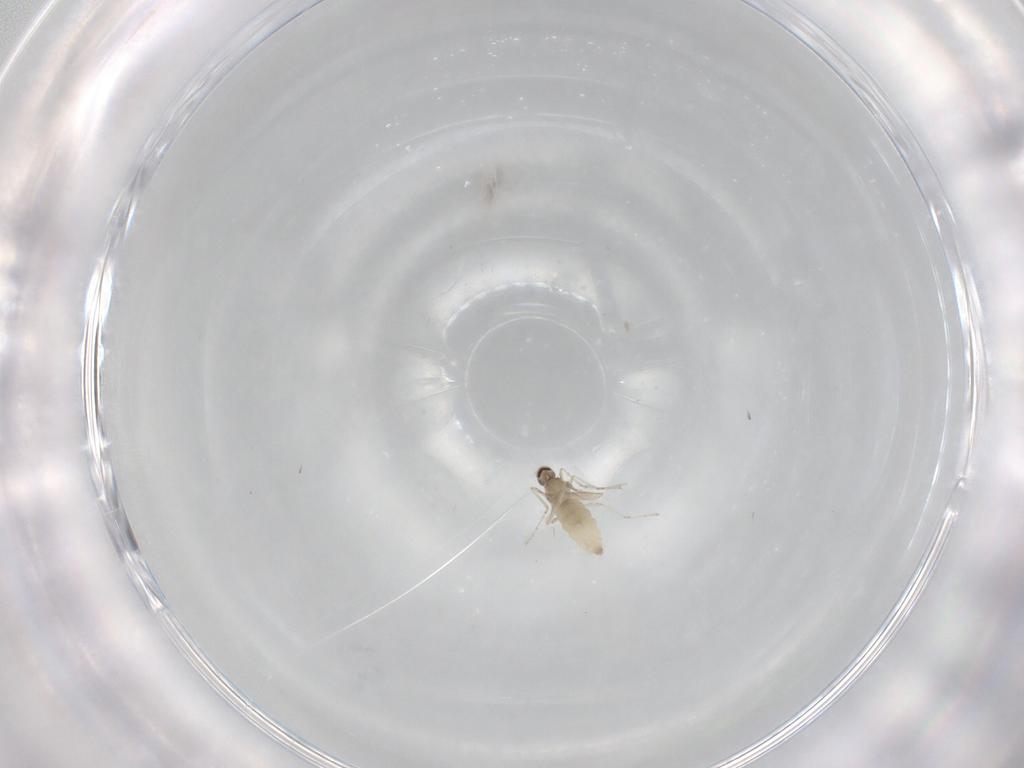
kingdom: Animalia
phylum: Arthropoda
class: Insecta
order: Diptera
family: Cecidomyiidae
